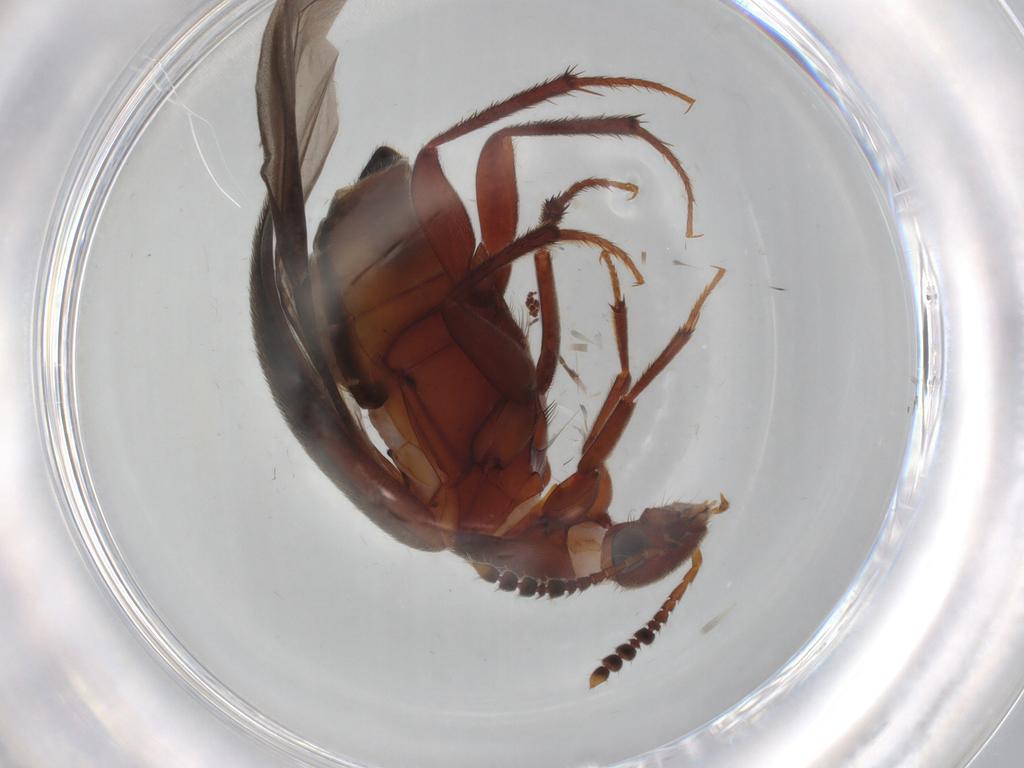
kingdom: Animalia
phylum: Arthropoda
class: Insecta
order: Coleoptera
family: Leiodidae
